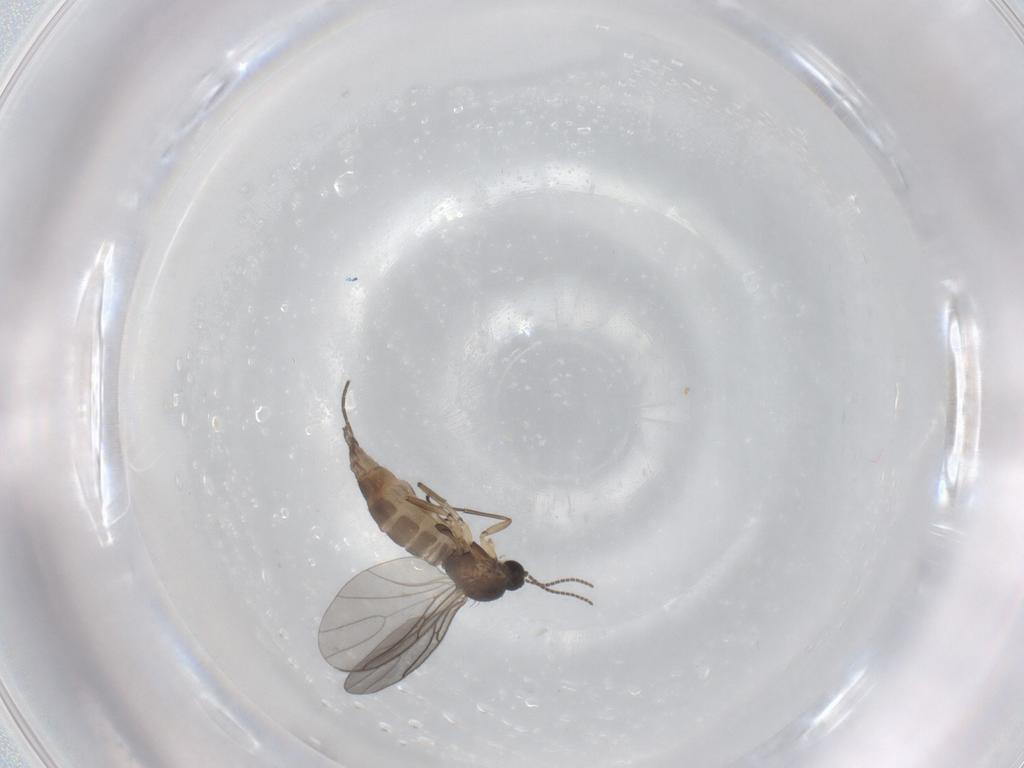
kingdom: Animalia
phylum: Arthropoda
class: Insecta
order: Diptera
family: Sciaridae
